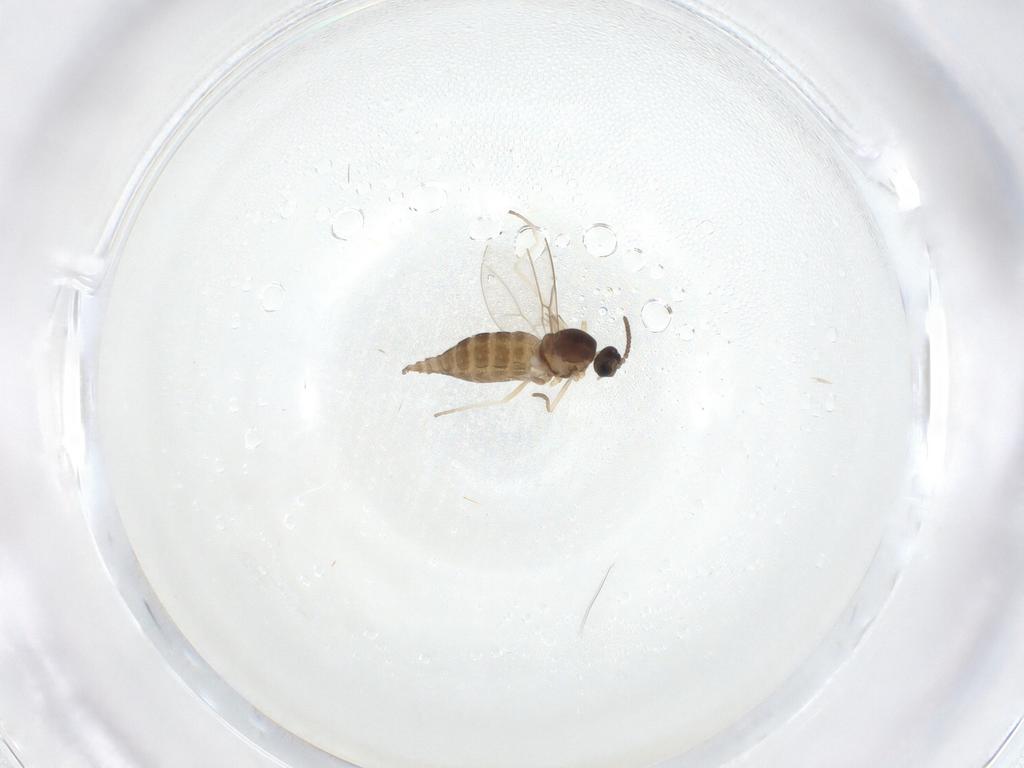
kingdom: Animalia
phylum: Arthropoda
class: Insecta
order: Diptera
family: Cecidomyiidae
